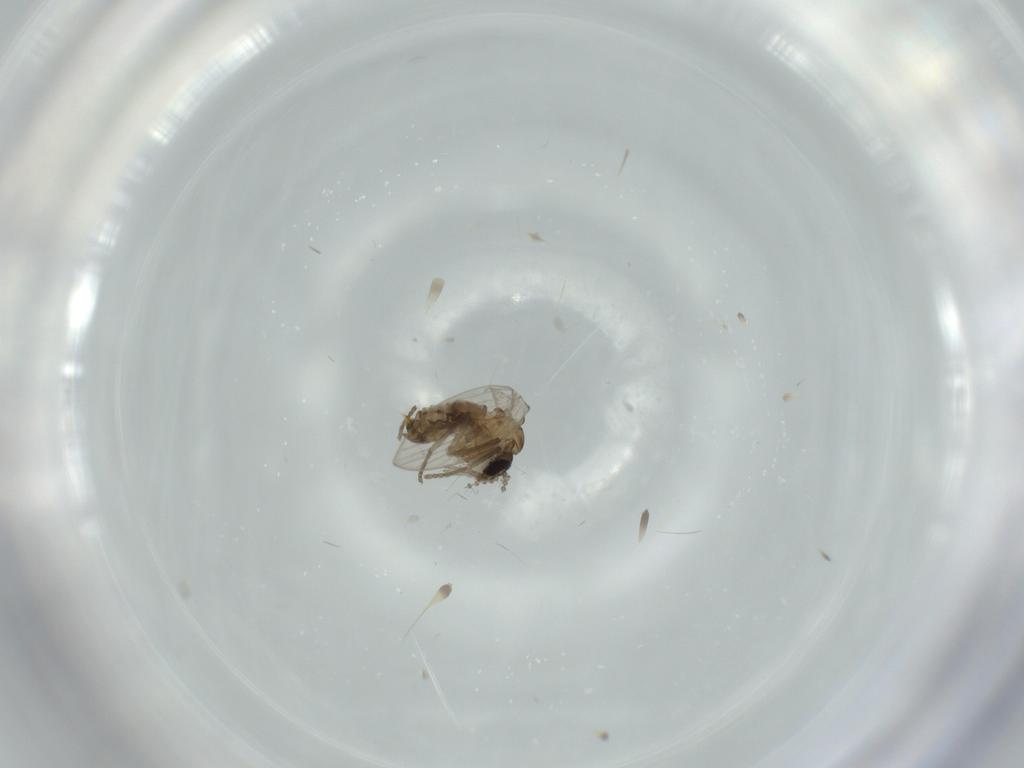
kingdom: Animalia
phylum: Arthropoda
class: Insecta
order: Diptera
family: Psychodidae
